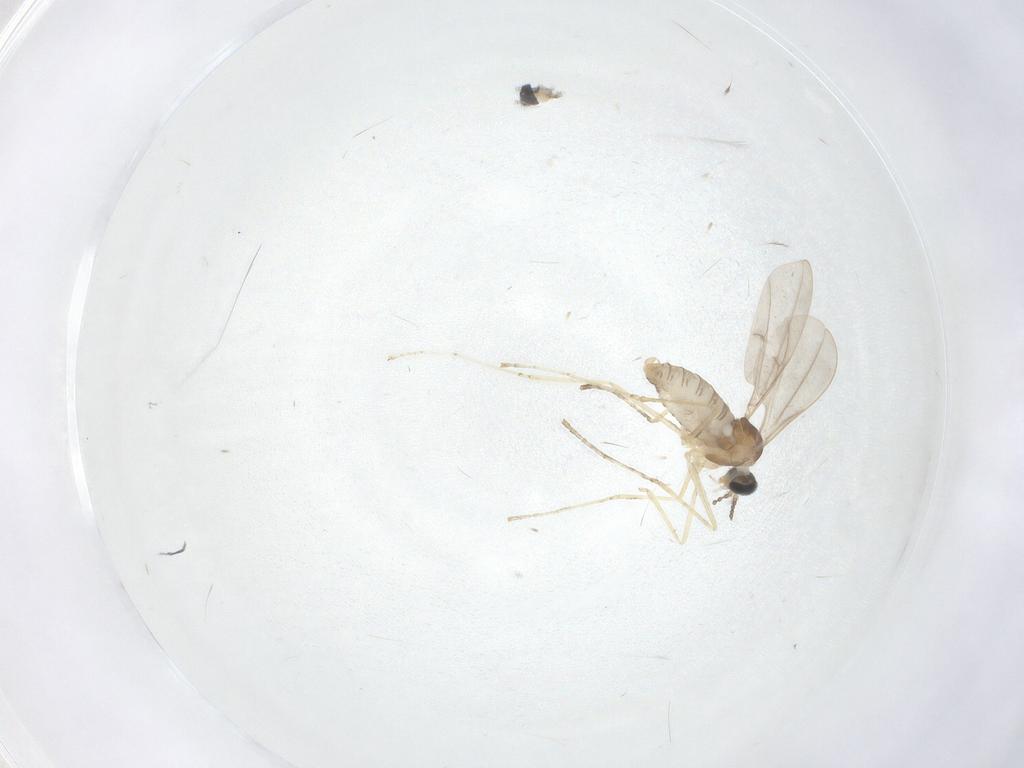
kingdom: Animalia
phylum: Arthropoda
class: Insecta
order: Diptera
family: Cecidomyiidae
